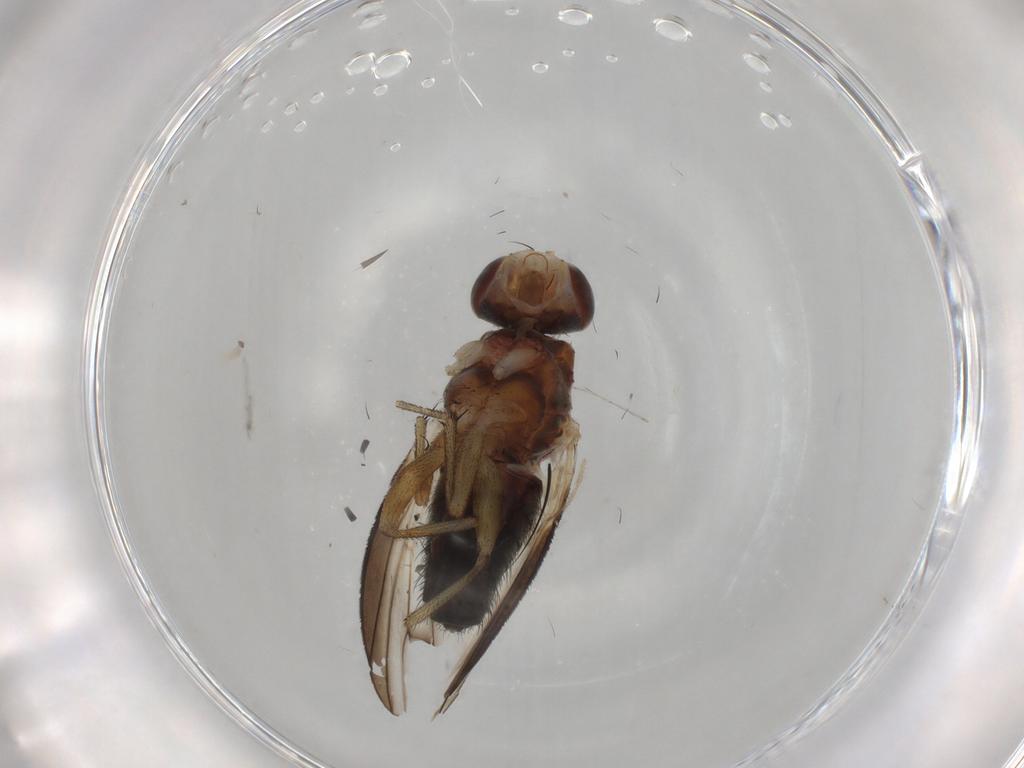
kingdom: Animalia
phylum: Arthropoda
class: Insecta
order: Diptera
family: Heleomyzidae
